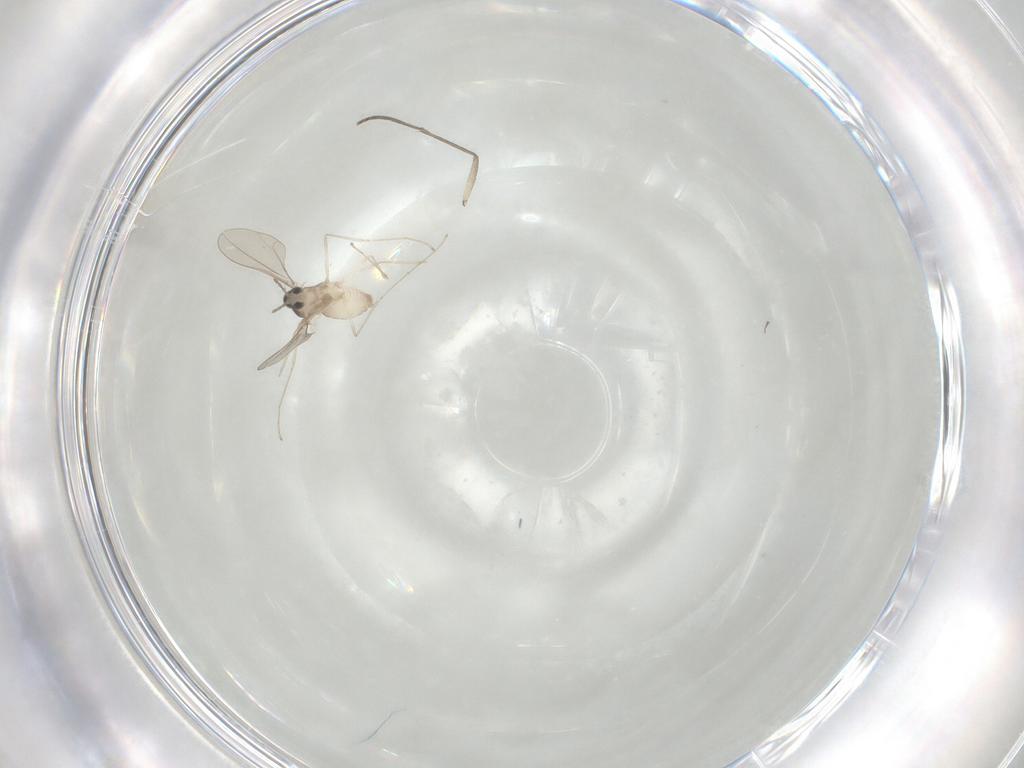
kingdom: Animalia
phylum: Arthropoda
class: Insecta
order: Diptera
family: Cecidomyiidae
